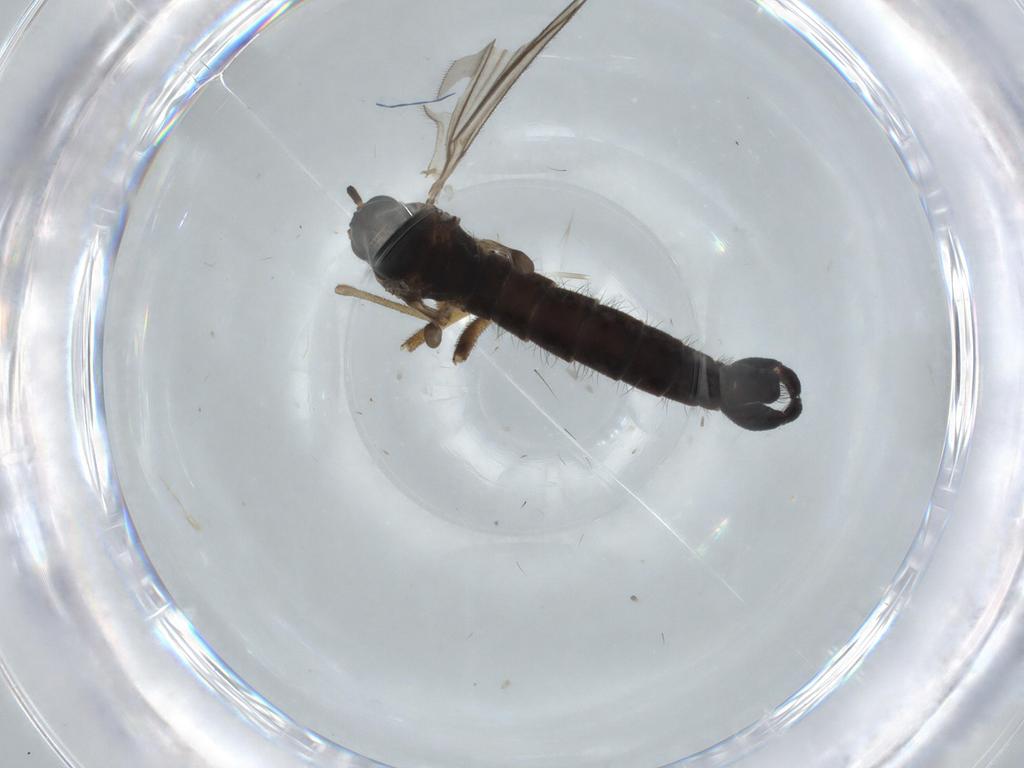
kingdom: Animalia
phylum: Arthropoda
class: Insecta
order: Diptera
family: Sciaridae
